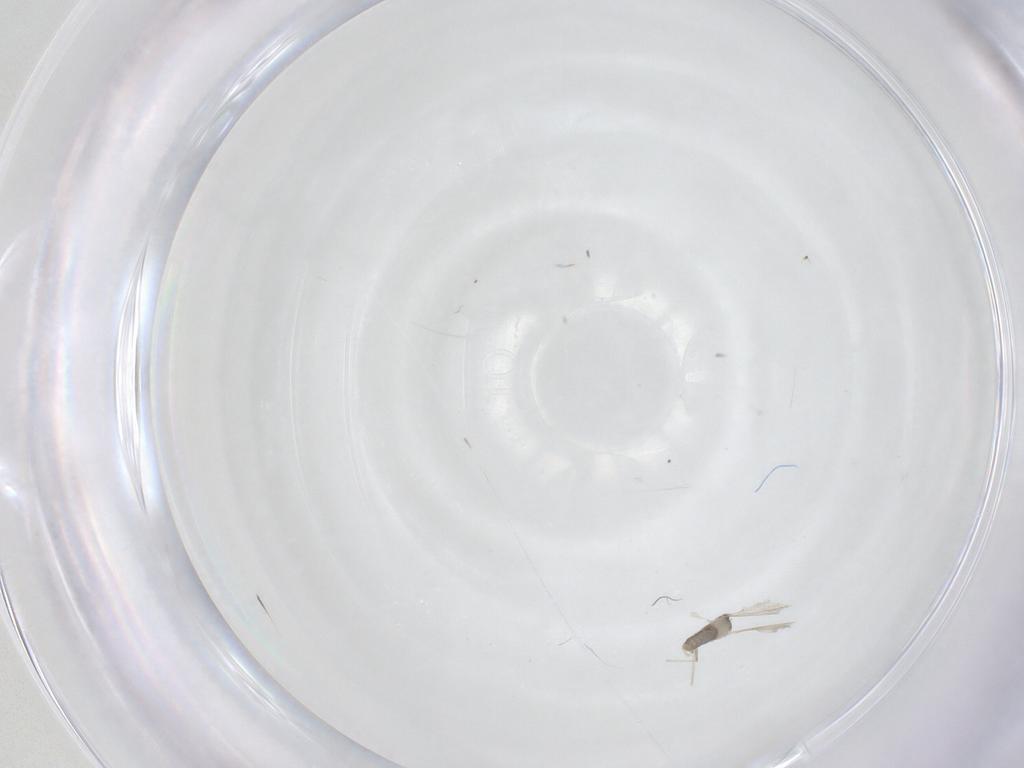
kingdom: Animalia
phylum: Arthropoda
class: Insecta
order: Diptera
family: Cecidomyiidae
